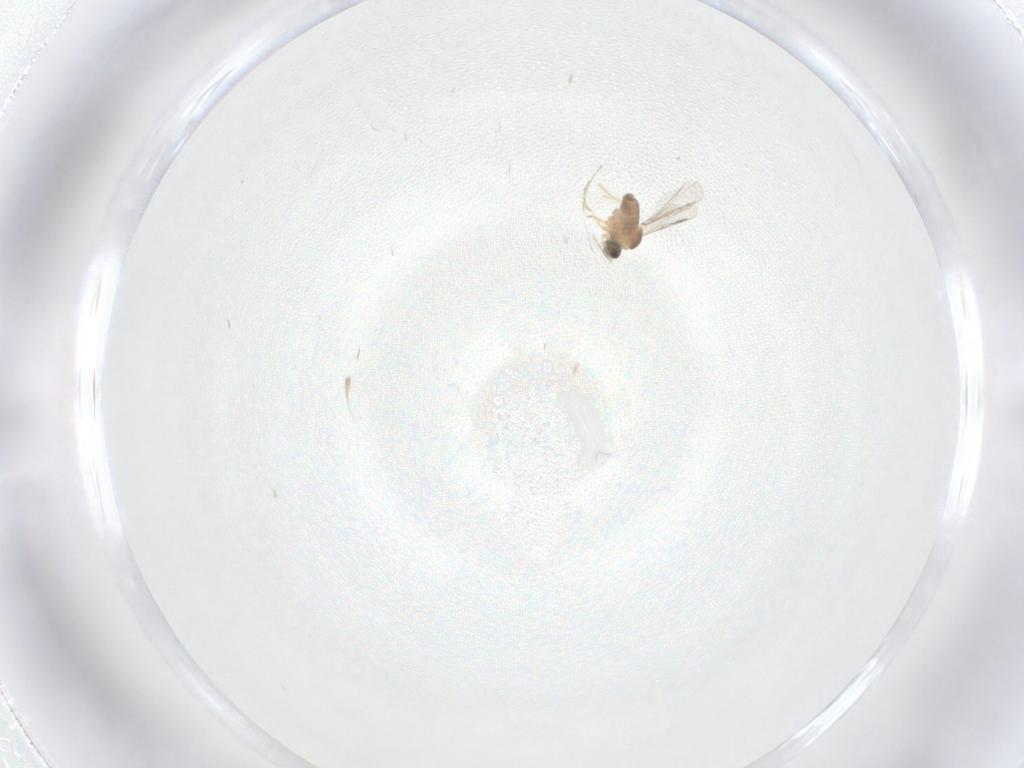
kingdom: Animalia
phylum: Arthropoda
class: Insecta
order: Diptera
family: Cecidomyiidae
